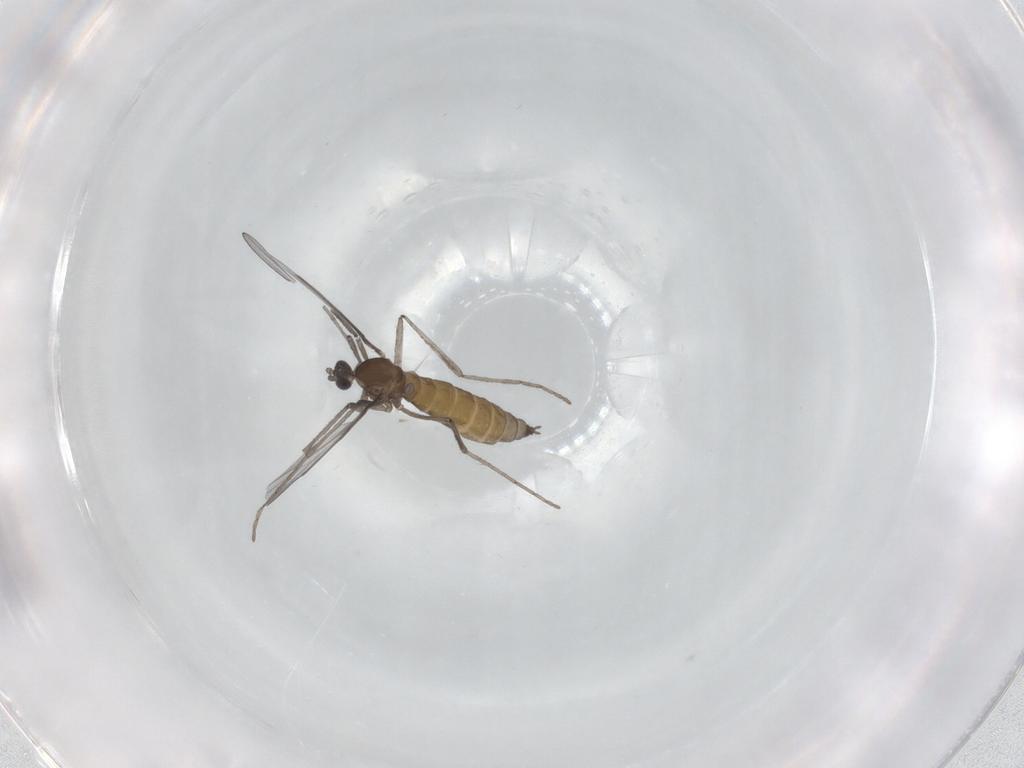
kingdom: Animalia
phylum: Arthropoda
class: Insecta
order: Diptera
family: Cecidomyiidae
